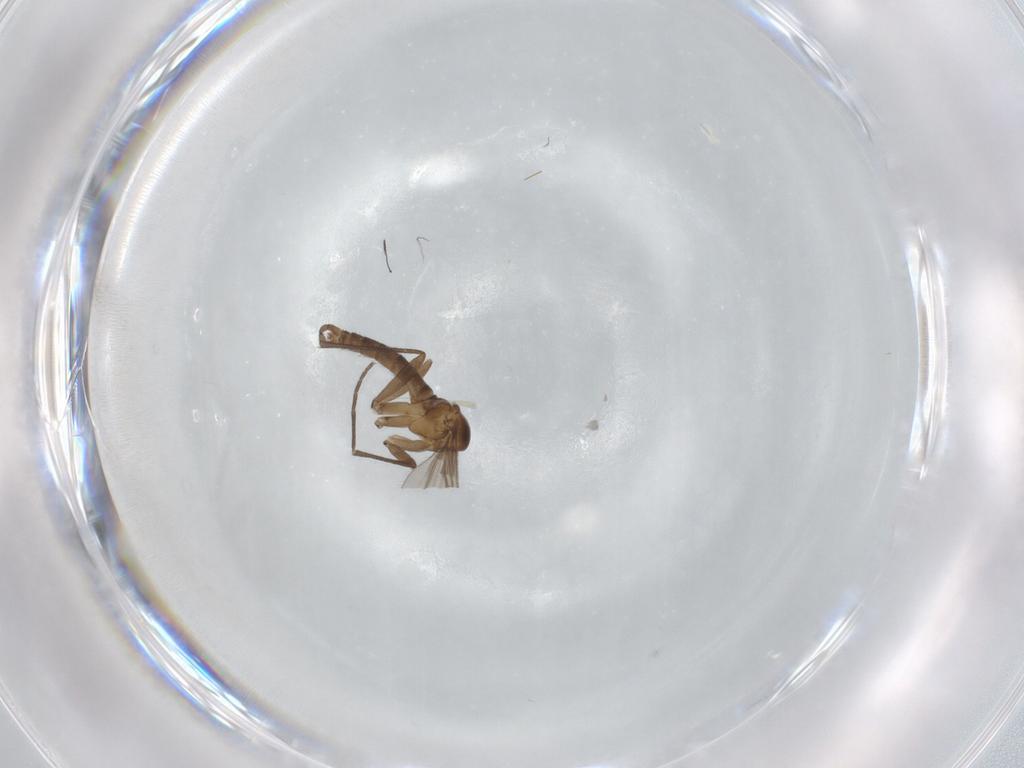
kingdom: Animalia
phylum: Arthropoda
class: Insecta
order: Diptera
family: Sciaridae
